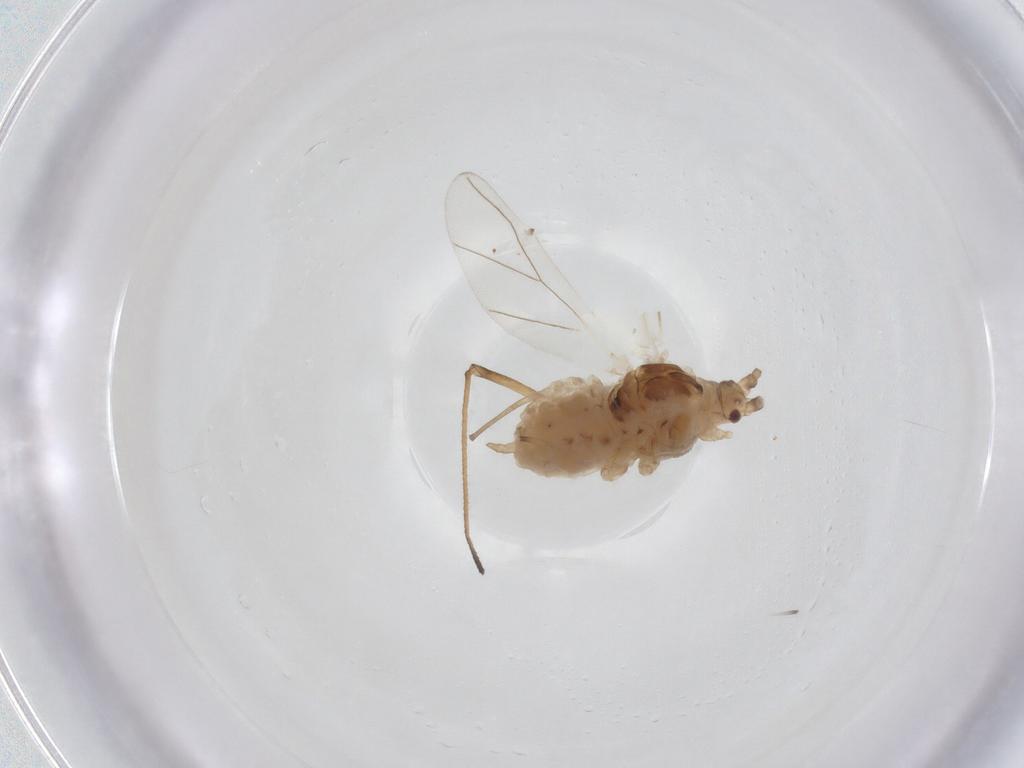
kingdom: Animalia
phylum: Arthropoda
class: Insecta
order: Hemiptera
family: Aphididae
